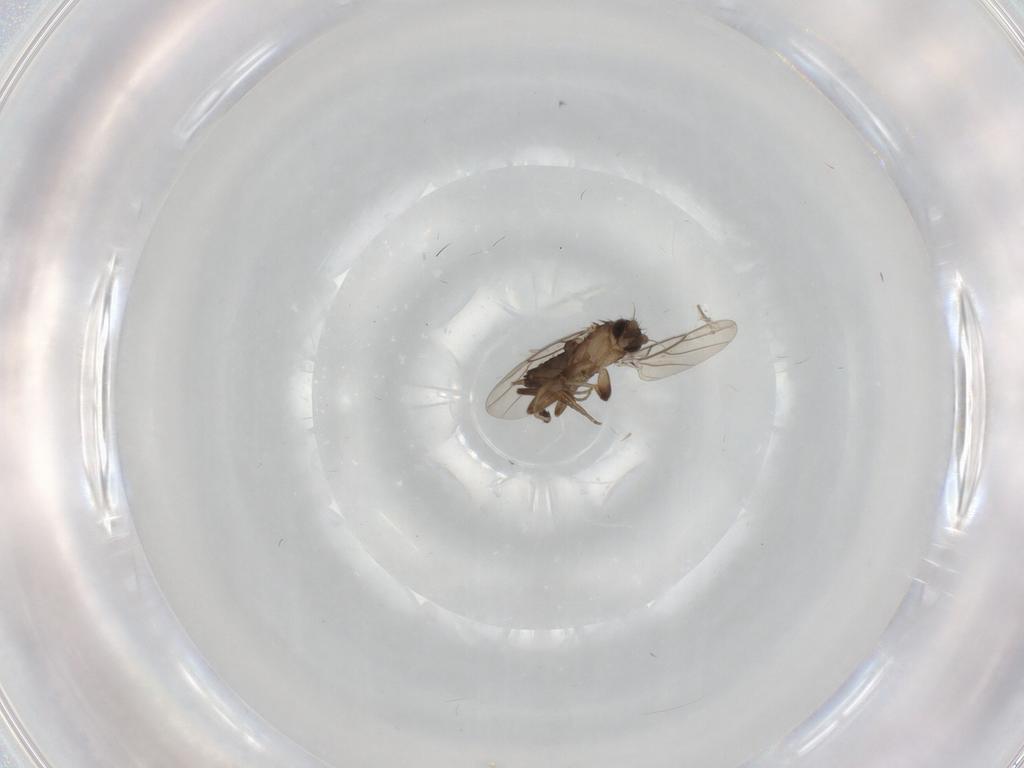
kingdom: Animalia
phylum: Arthropoda
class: Insecta
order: Diptera
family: Phoridae
